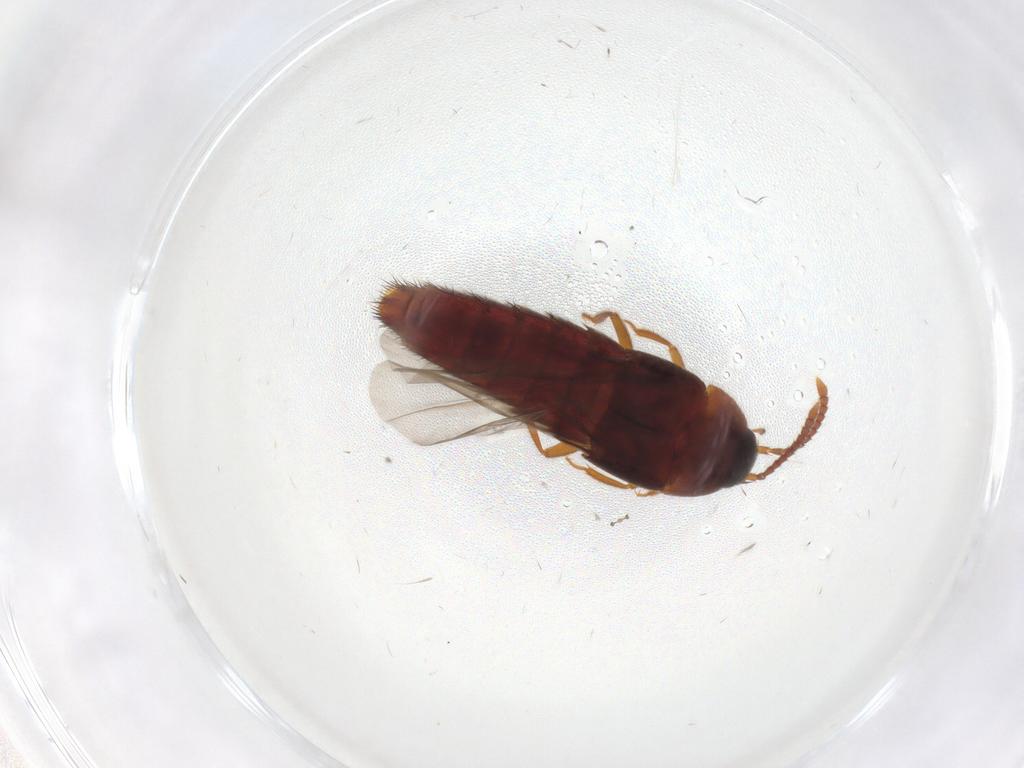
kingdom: Animalia
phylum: Arthropoda
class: Insecta
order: Coleoptera
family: Staphylinidae
